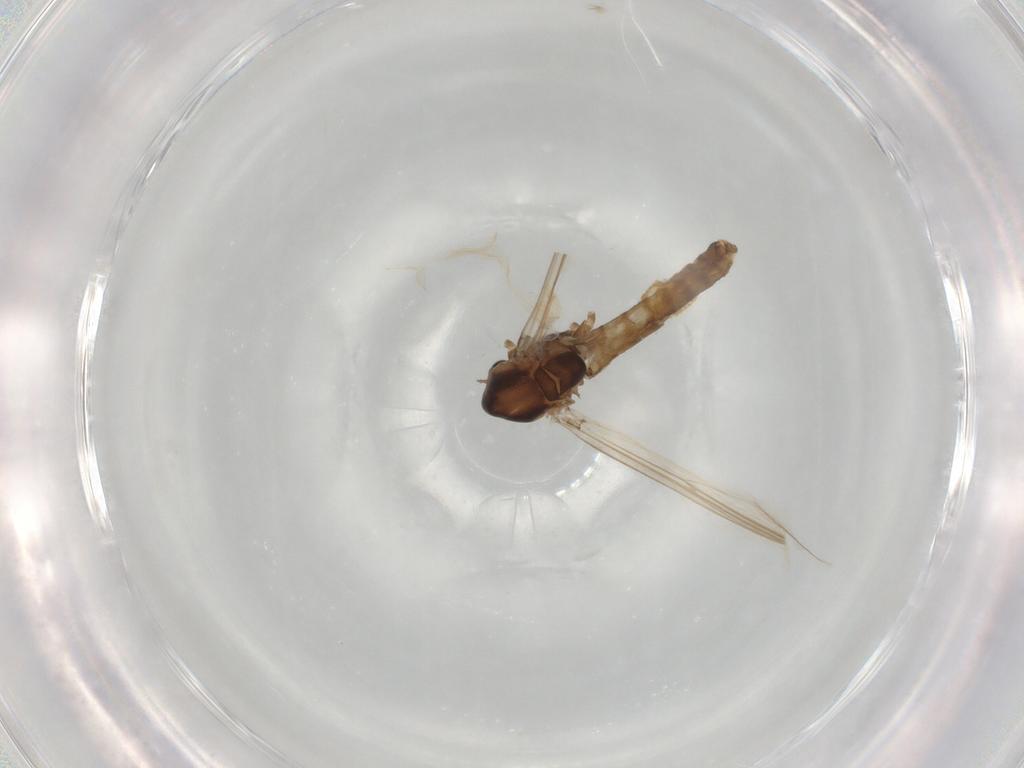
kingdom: Animalia
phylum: Arthropoda
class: Insecta
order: Diptera
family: Chironomidae
